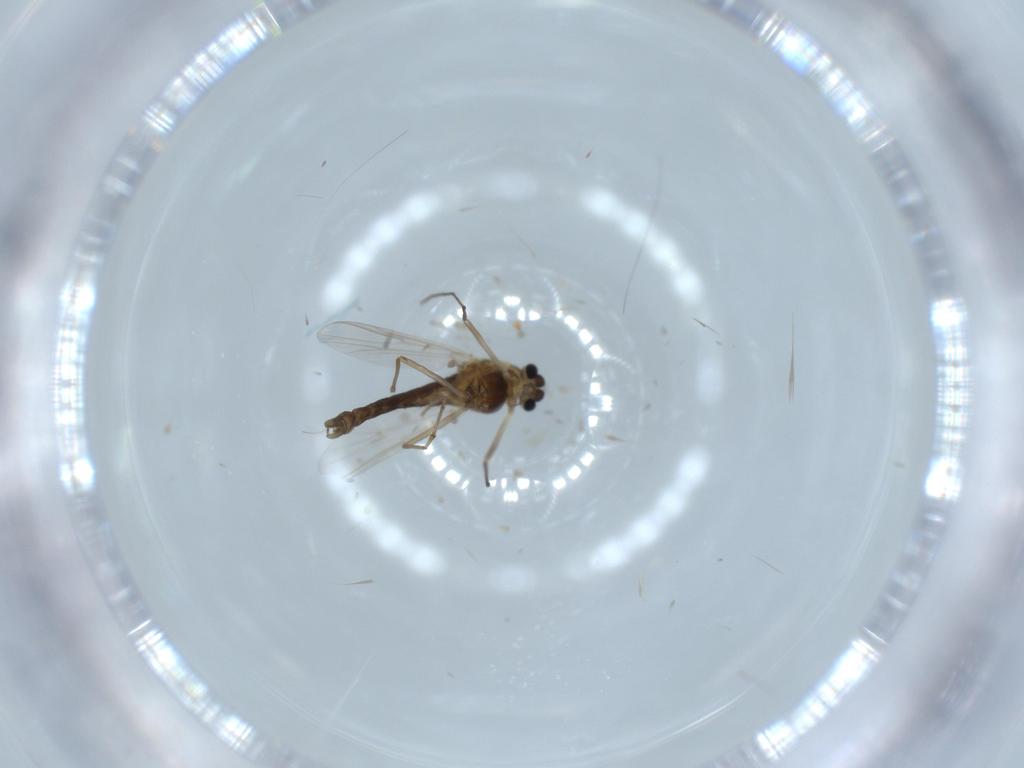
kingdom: Animalia
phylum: Arthropoda
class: Insecta
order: Diptera
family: Chironomidae
